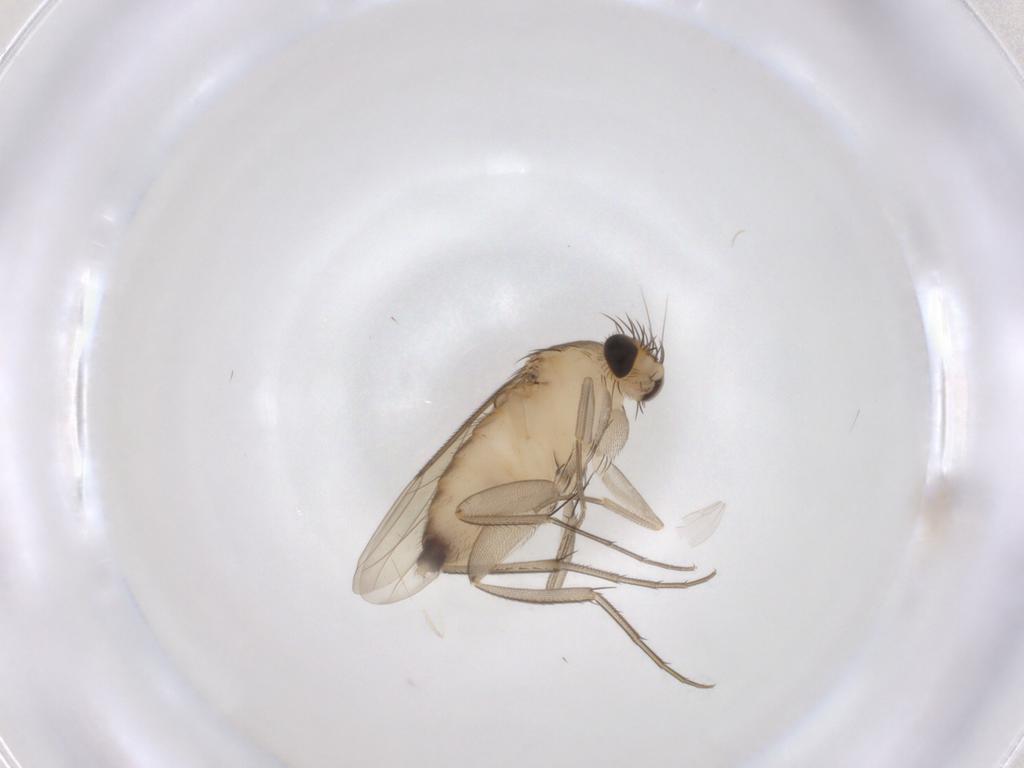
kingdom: Animalia
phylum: Arthropoda
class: Insecta
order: Diptera
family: Cecidomyiidae
